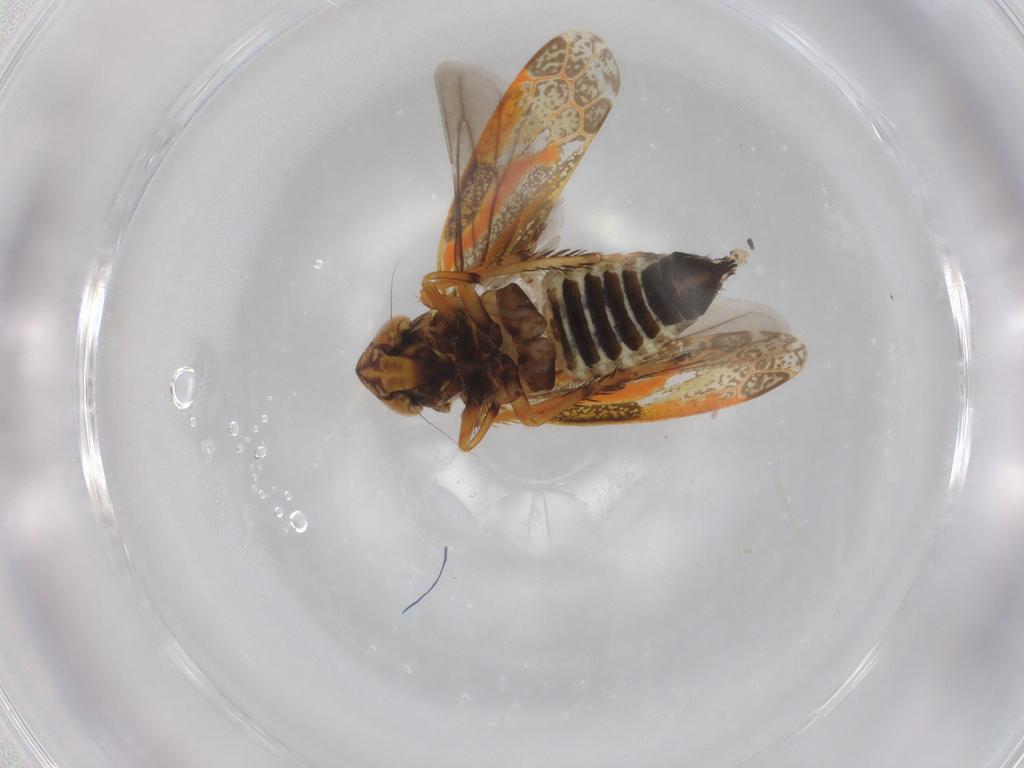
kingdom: Animalia
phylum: Arthropoda
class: Insecta
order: Hemiptera
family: Cicadellidae
